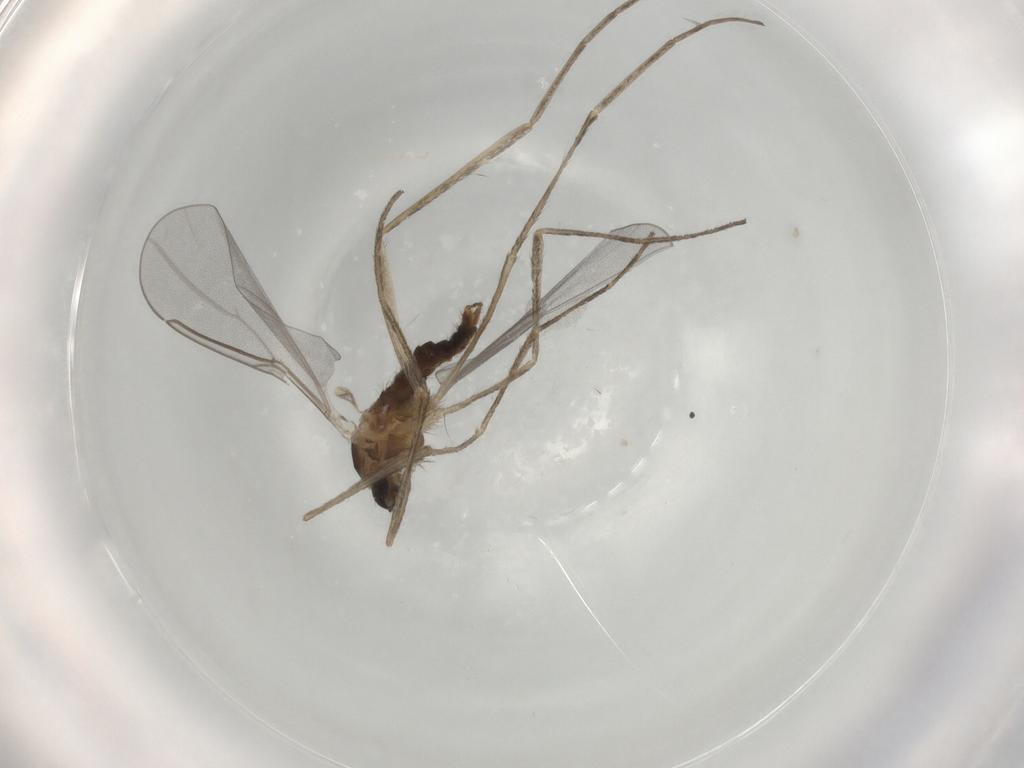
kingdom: Animalia
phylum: Arthropoda
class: Insecta
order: Diptera
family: Cecidomyiidae
